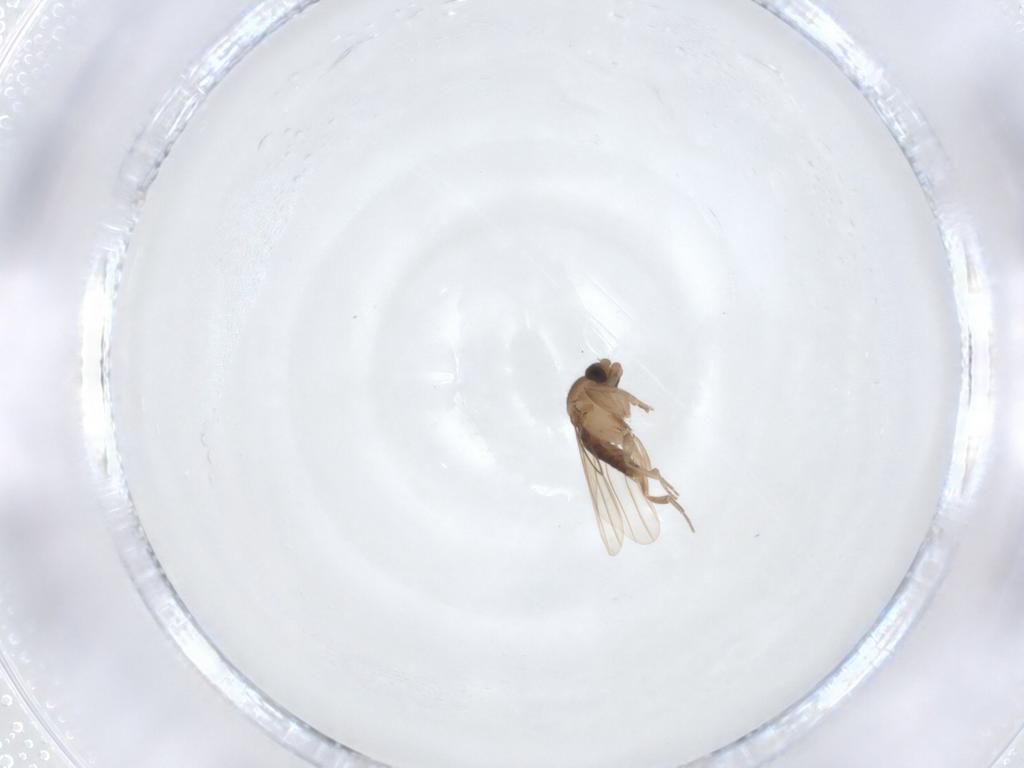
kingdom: Animalia
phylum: Arthropoda
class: Insecta
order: Diptera
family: Phoridae
